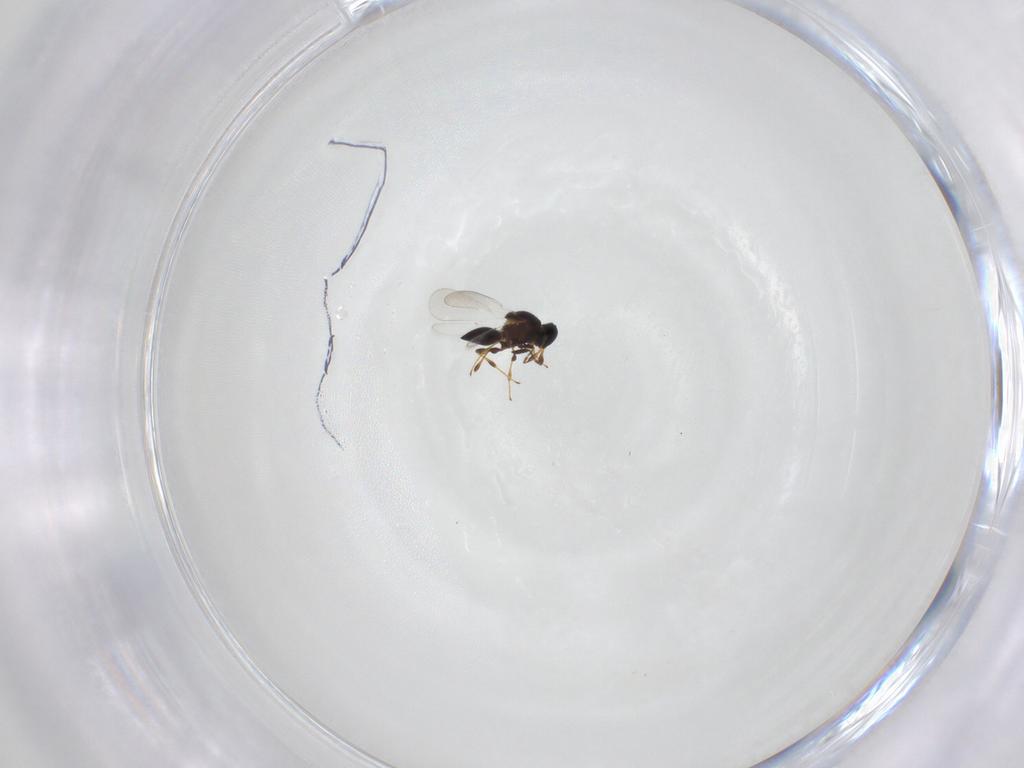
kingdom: Animalia
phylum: Arthropoda
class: Insecta
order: Hymenoptera
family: Platygastridae
